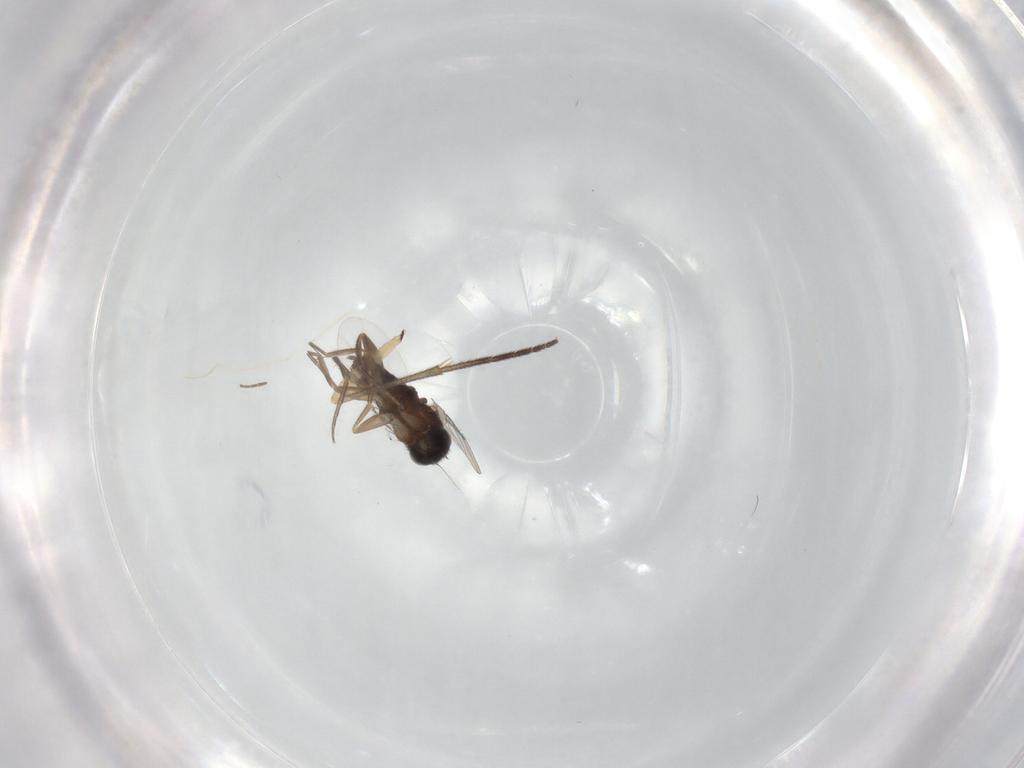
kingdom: Animalia
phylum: Arthropoda
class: Insecta
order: Diptera
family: Phoridae
